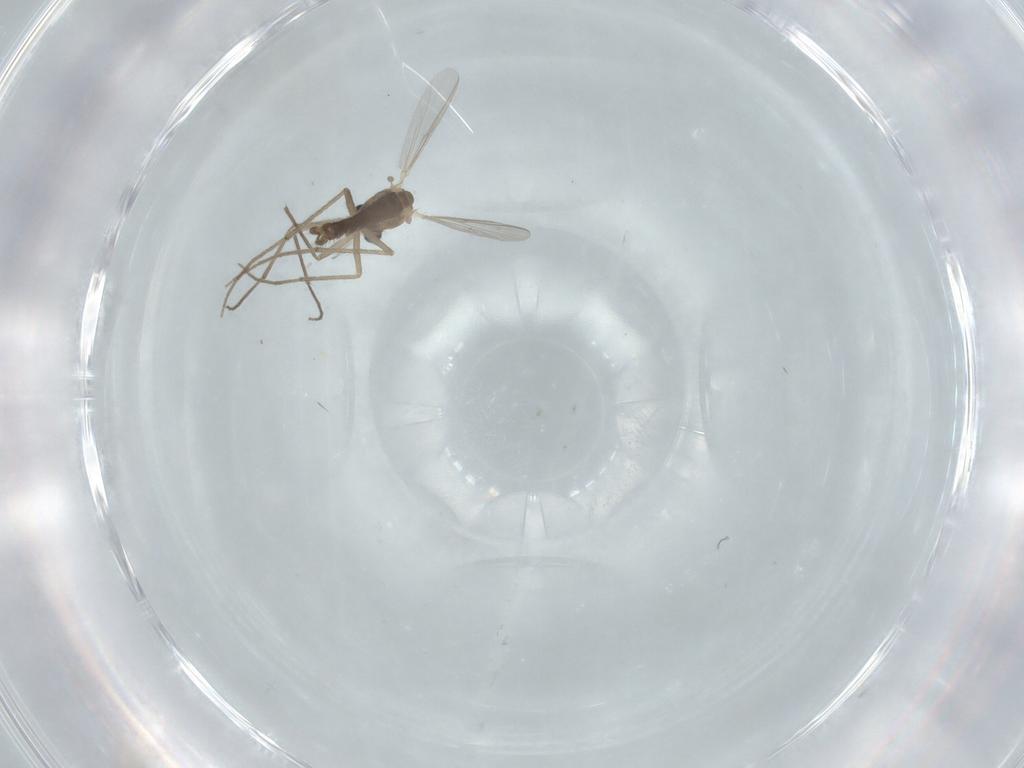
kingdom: Animalia
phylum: Arthropoda
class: Insecta
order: Diptera
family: Chironomidae
